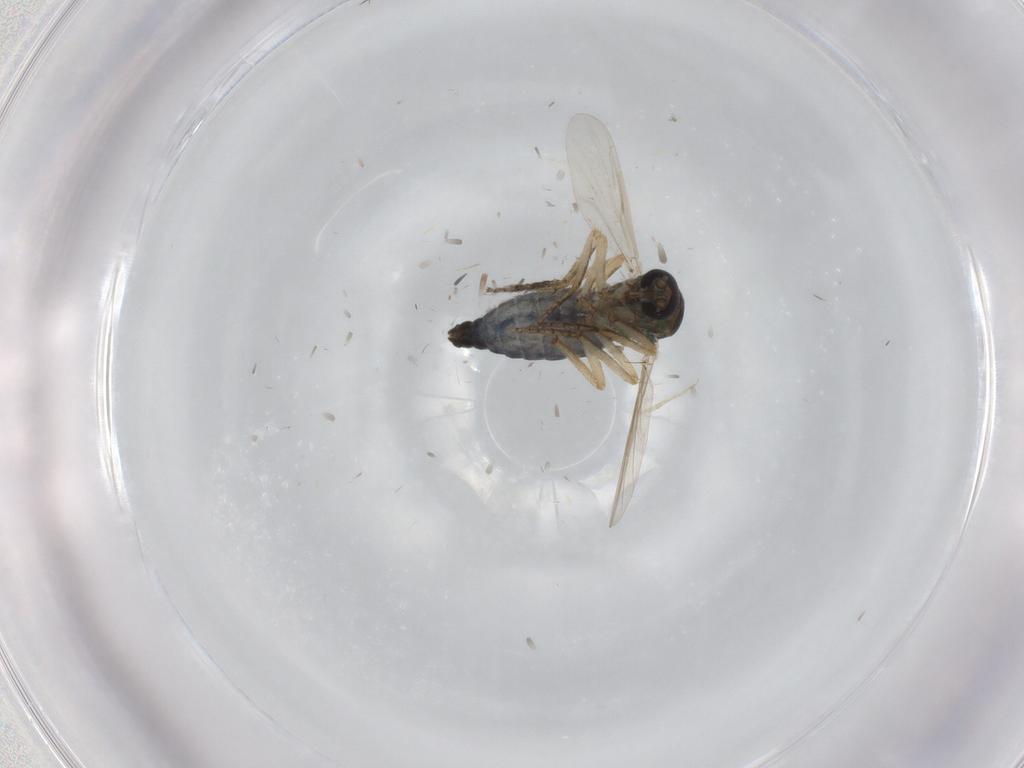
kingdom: Animalia
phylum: Arthropoda
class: Insecta
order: Diptera
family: Ceratopogonidae
